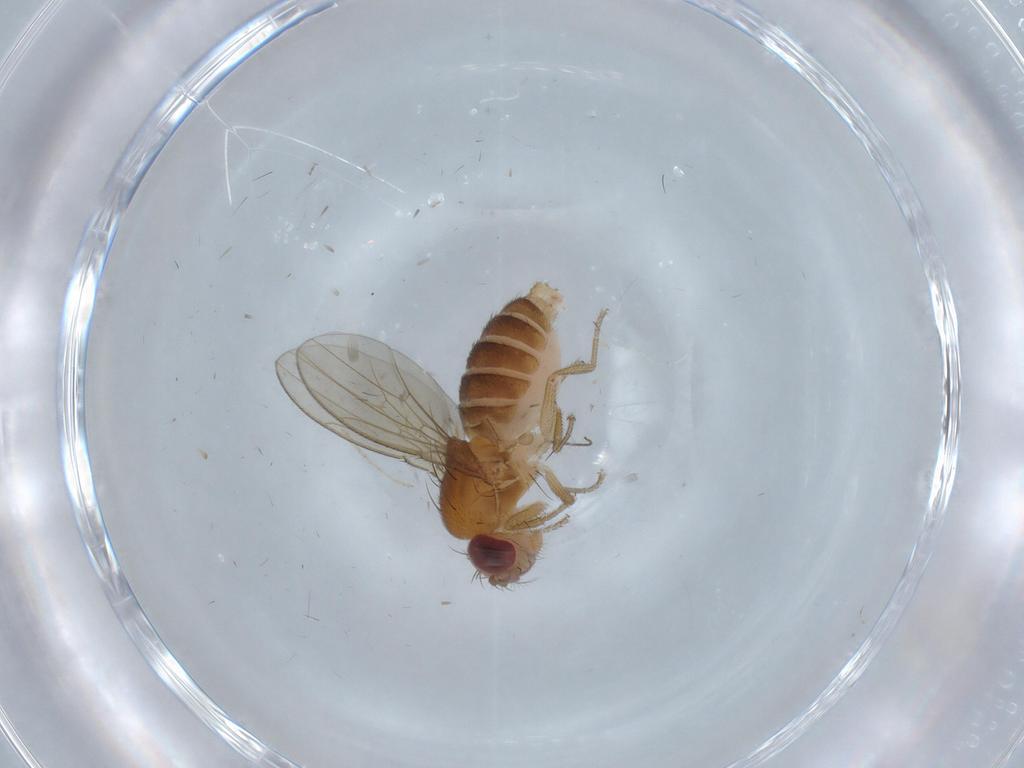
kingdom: Animalia
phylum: Arthropoda
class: Insecta
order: Diptera
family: Drosophilidae
